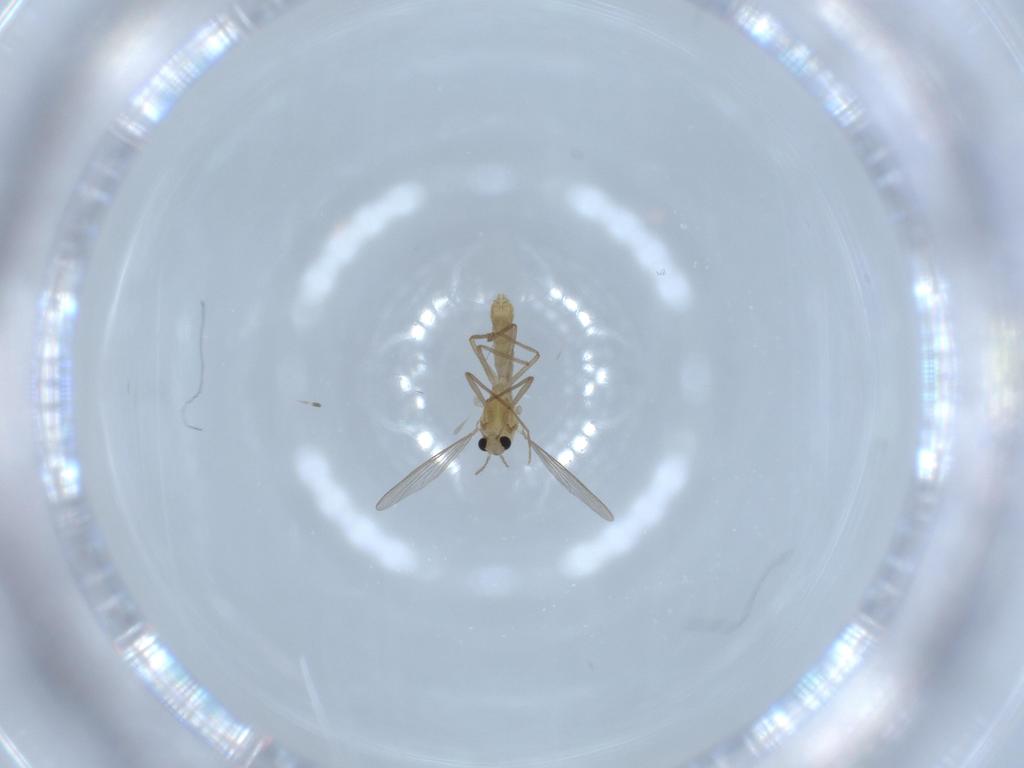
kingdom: Animalia
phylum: Arthropoda
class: Insecta
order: Diptera
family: Chironomidae
